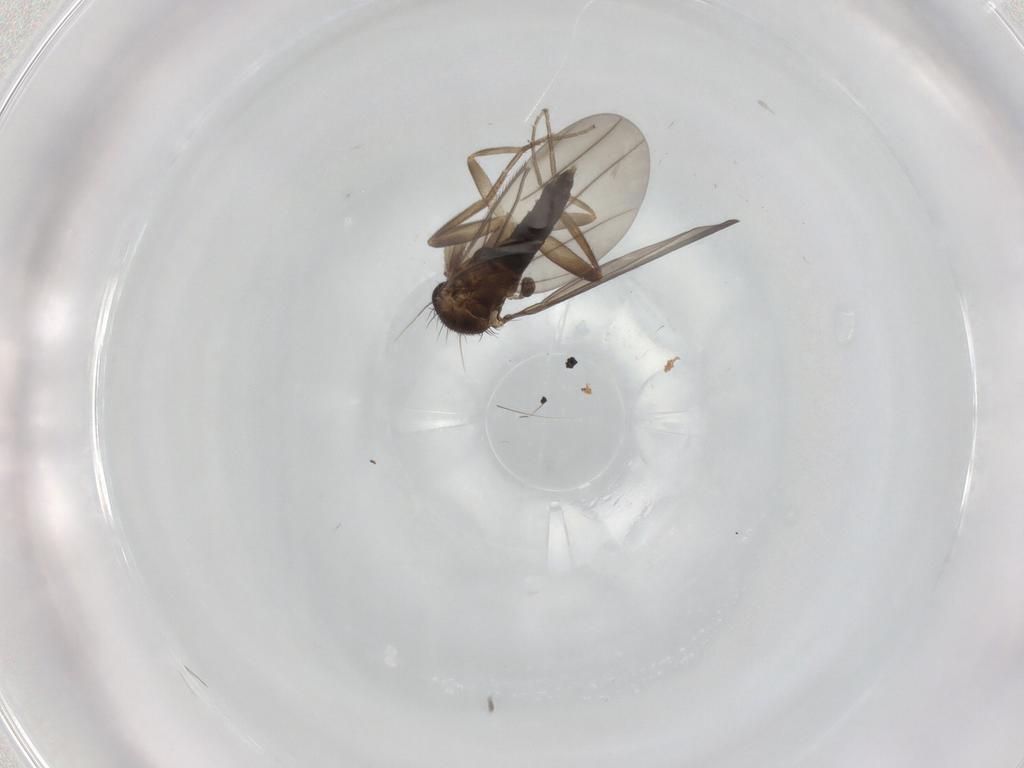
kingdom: Animalia
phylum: Arthropoda
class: Insecta
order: Diptera
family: Phoridae
